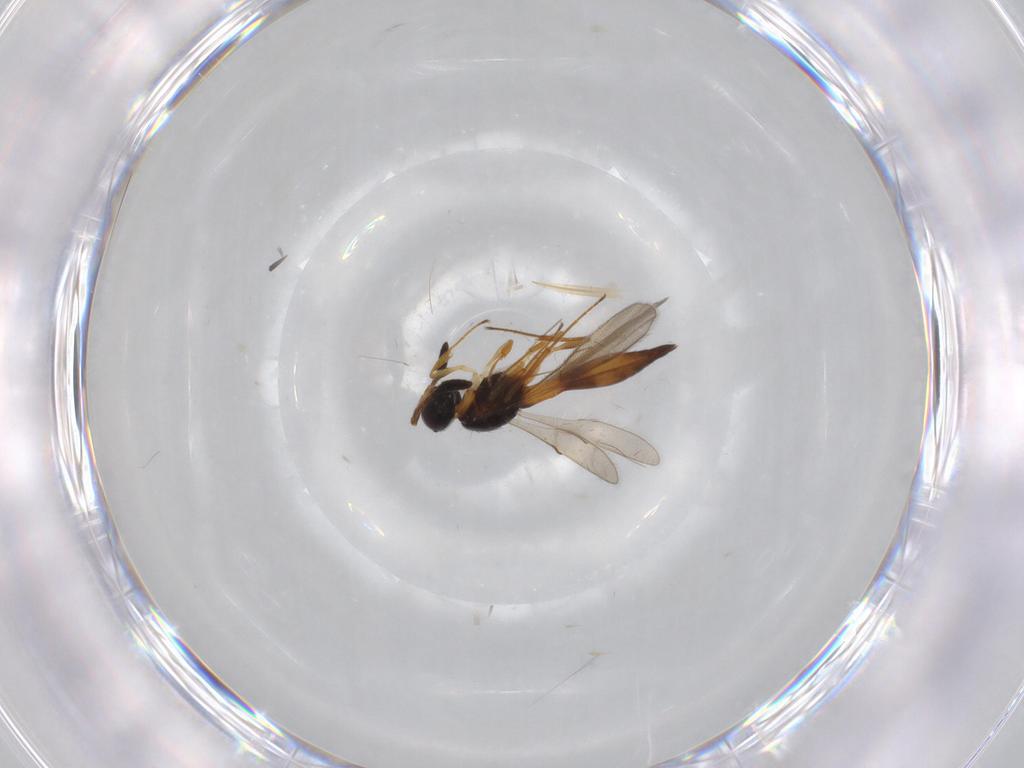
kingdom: Animalia
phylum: Arthropoda
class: Insecta
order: Hymenoptera
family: Scelionidae
